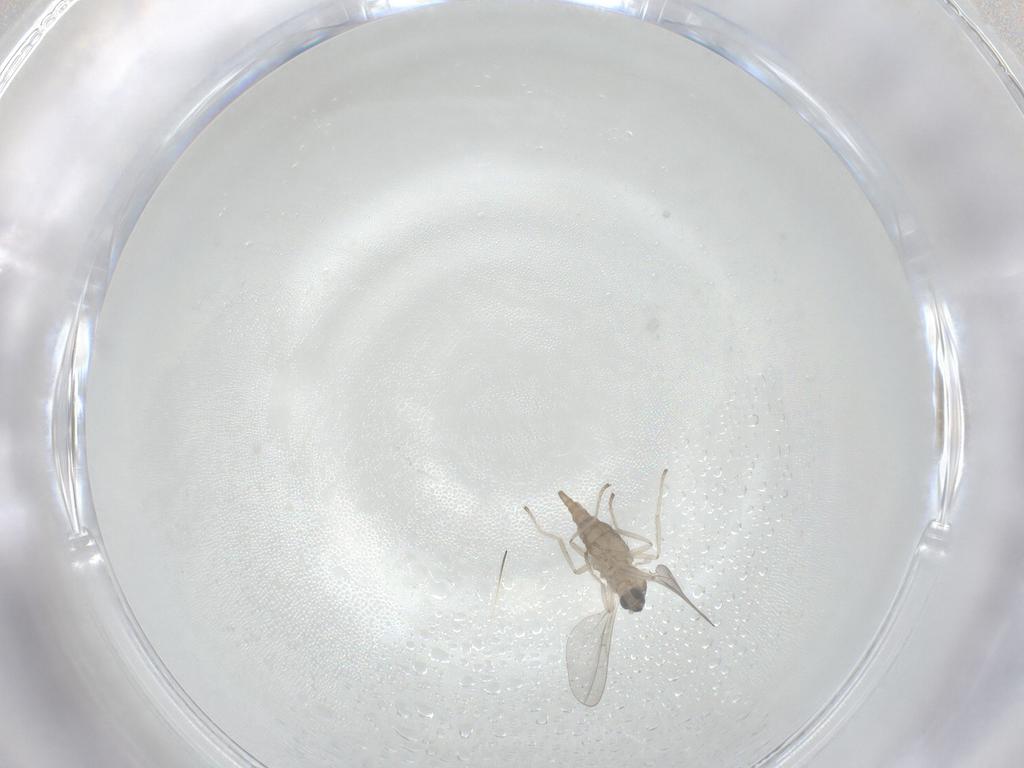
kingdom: Animalia
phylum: Arthropoda
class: Insecta
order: Diptera
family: Cecidomyiidae
